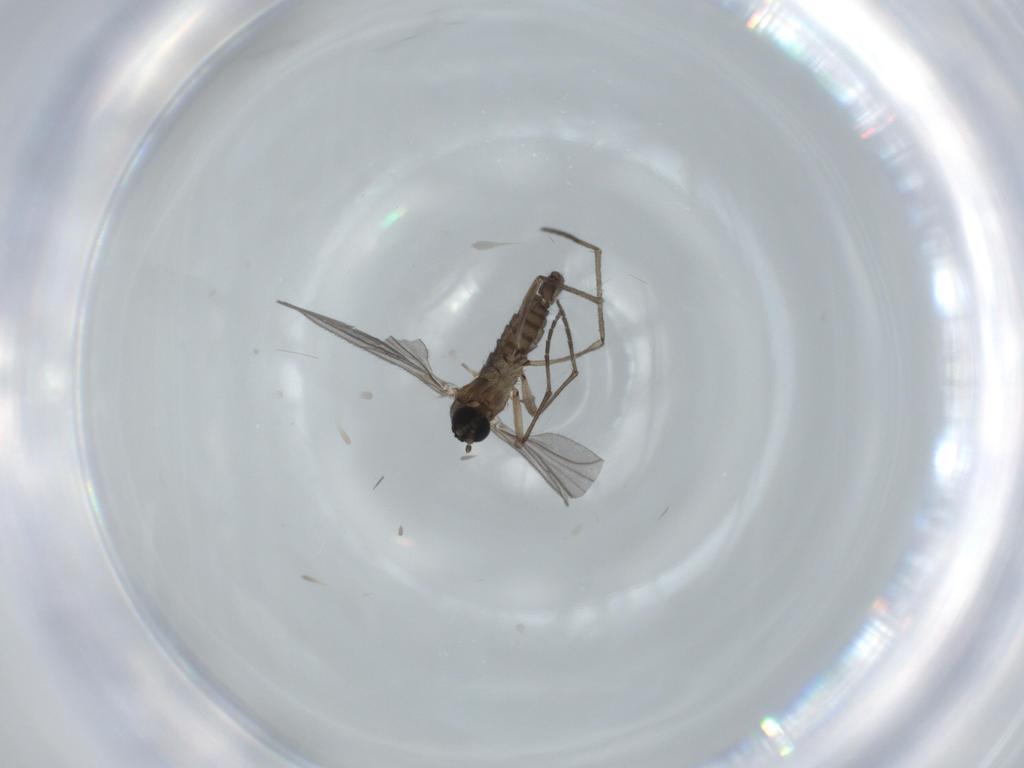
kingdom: Animalia
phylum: Arthropoda
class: Insecta
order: Diptera
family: Sciaridae
